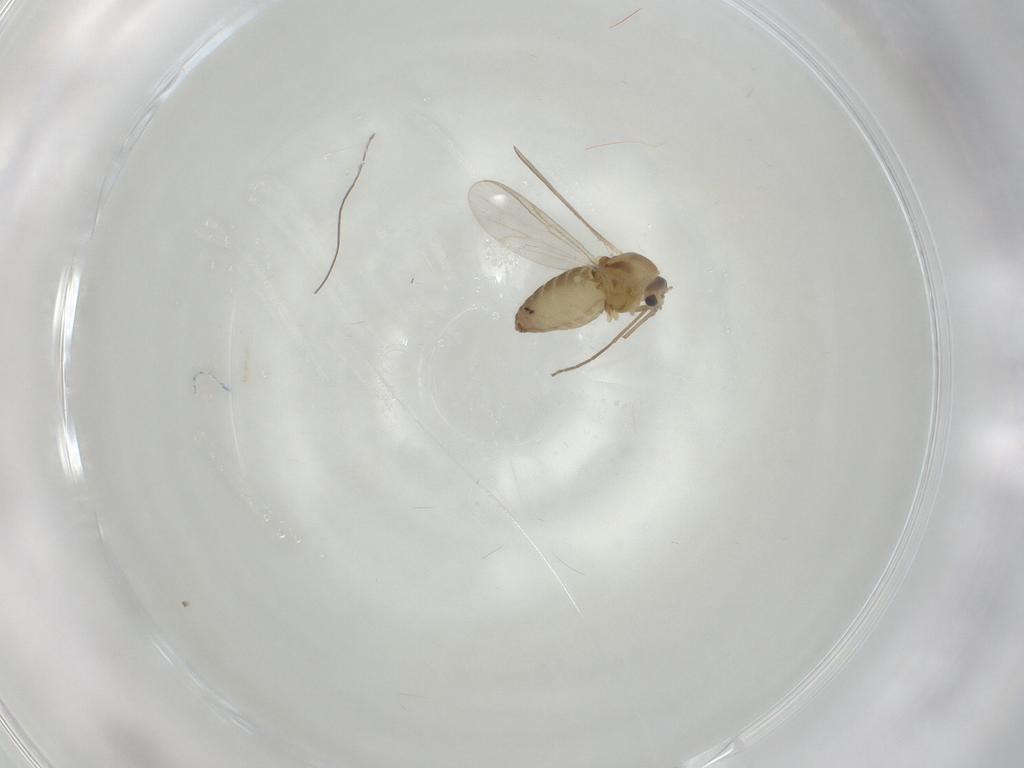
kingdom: Animalia
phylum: Arthropoda
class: Insecta
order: Diptera
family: Chironomidae
